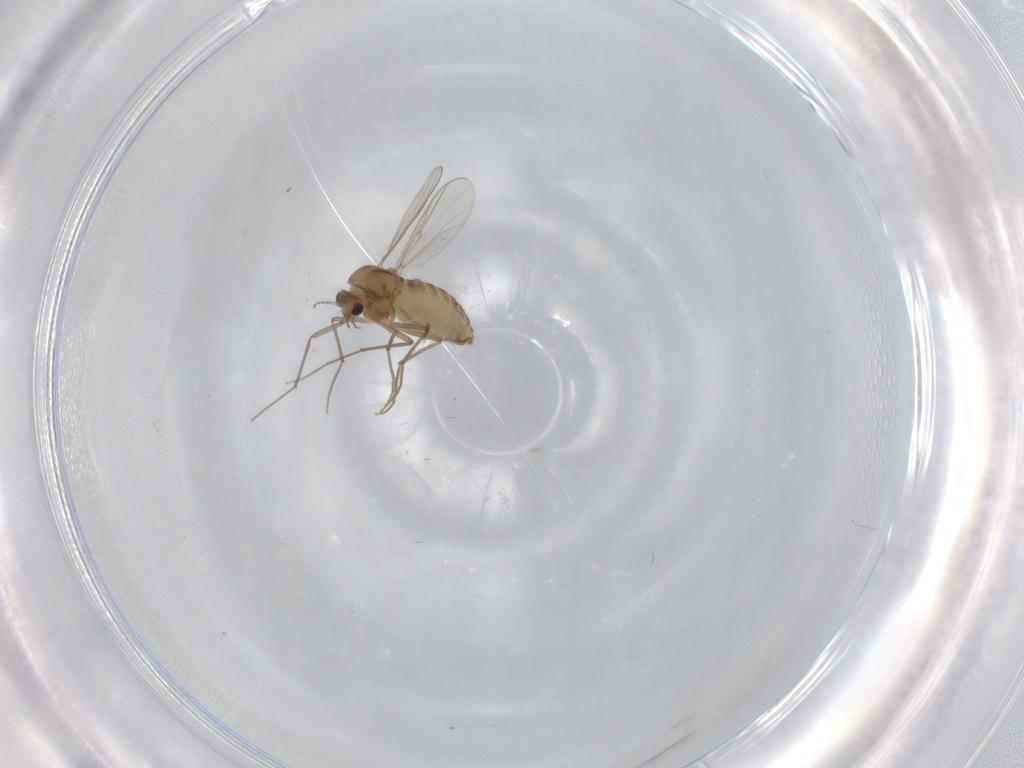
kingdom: Animalia
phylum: Arthropoda
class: Insecta
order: Diptera
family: Chironomidae
